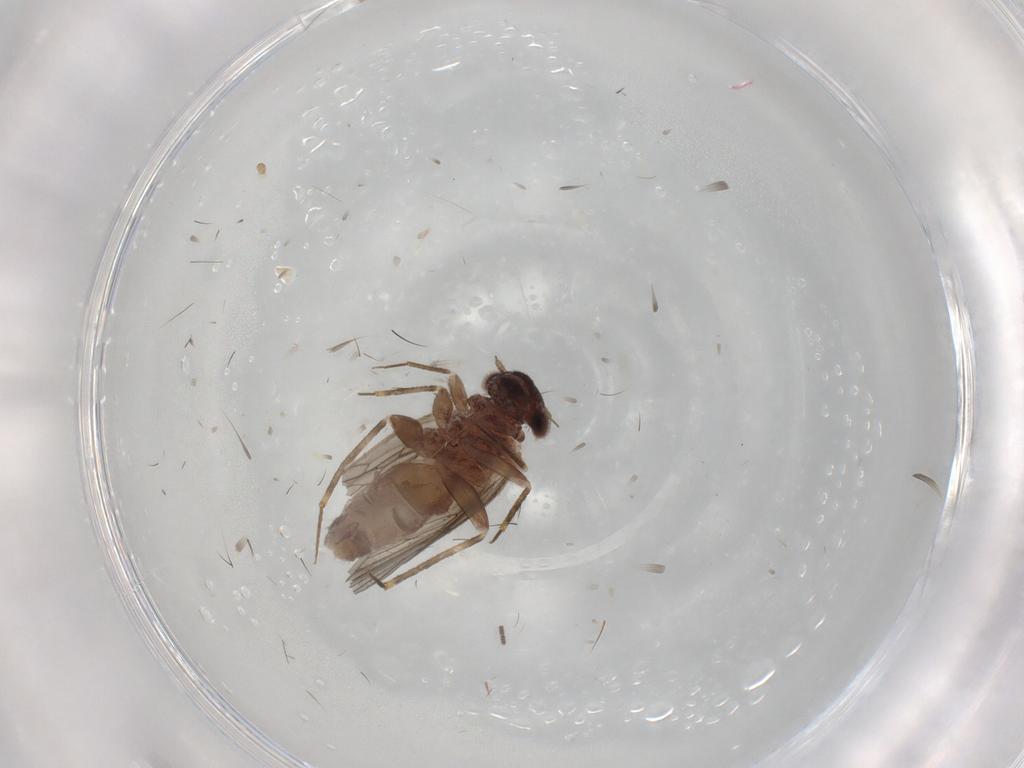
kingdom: Animalia
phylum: Arthropoda
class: Insecta
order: Psocodea
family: Lepidopsocidae
